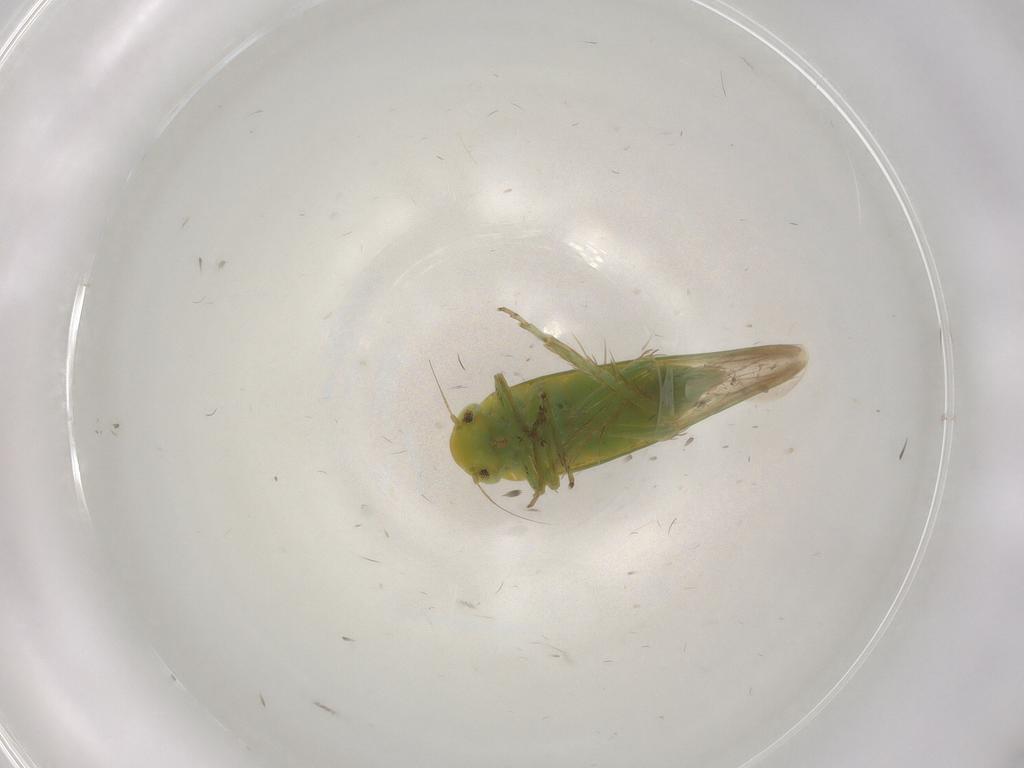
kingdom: Animalia
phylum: Arthropoda
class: Insecta
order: Hemiptera
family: Cicadellidae
